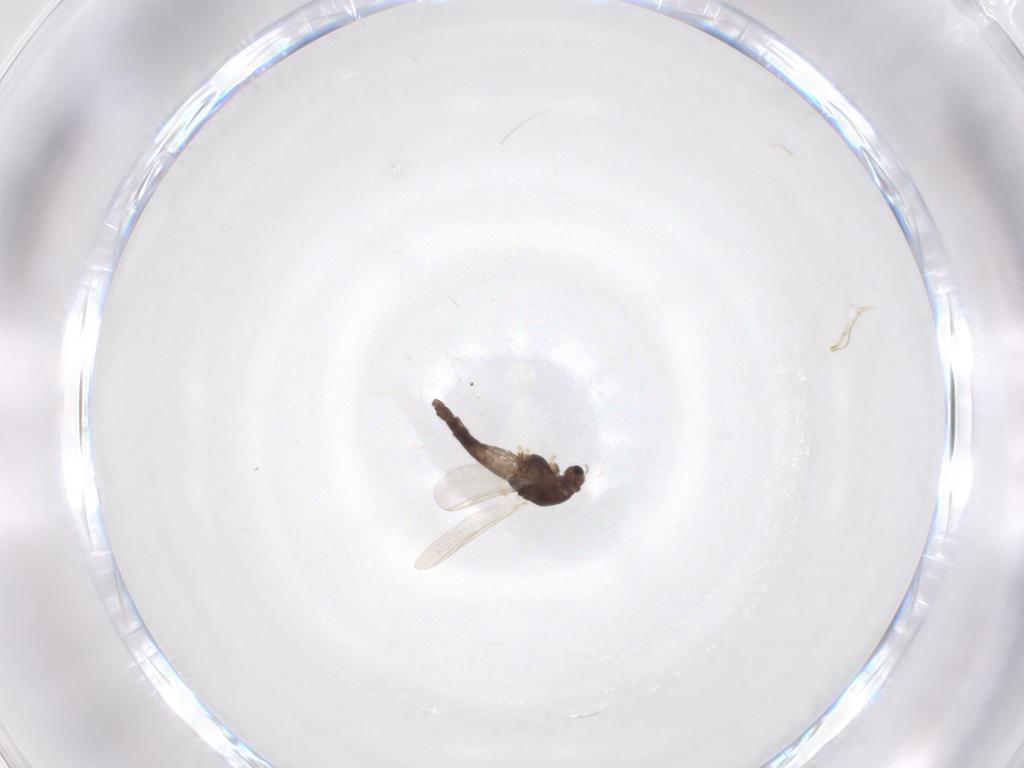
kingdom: Animalia
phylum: Arthropoda
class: Insecta
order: Diptera
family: Chironomidae
